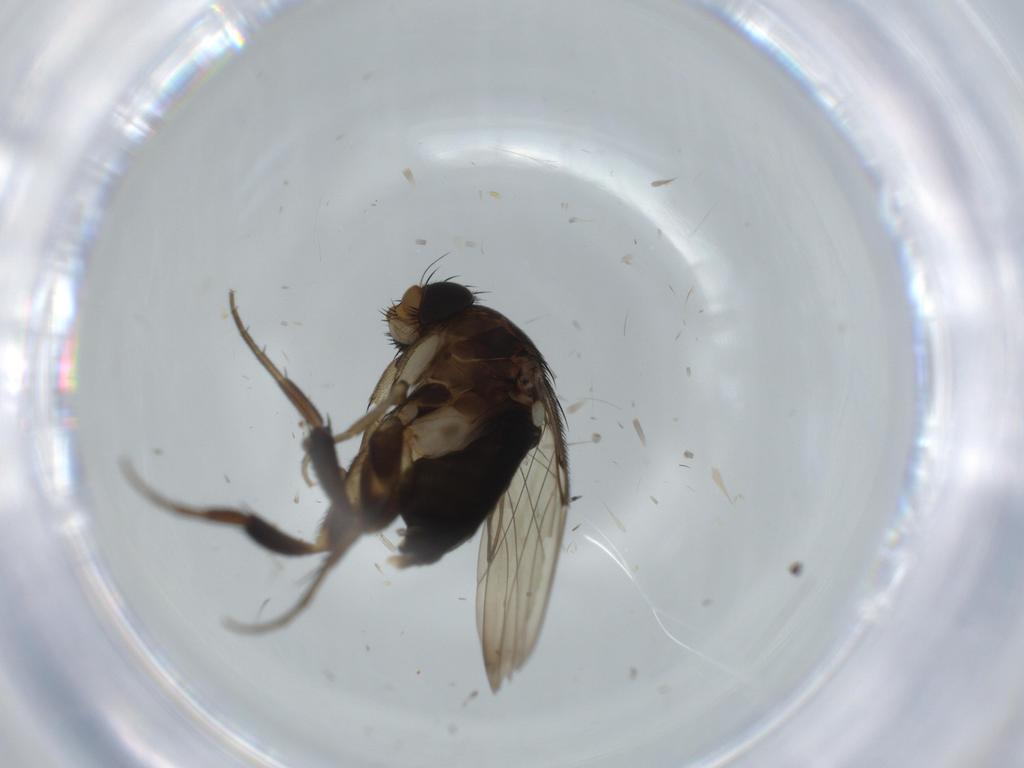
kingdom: Animalia
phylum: Arthropoda
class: Insecta
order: Diptera
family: Phoridae
